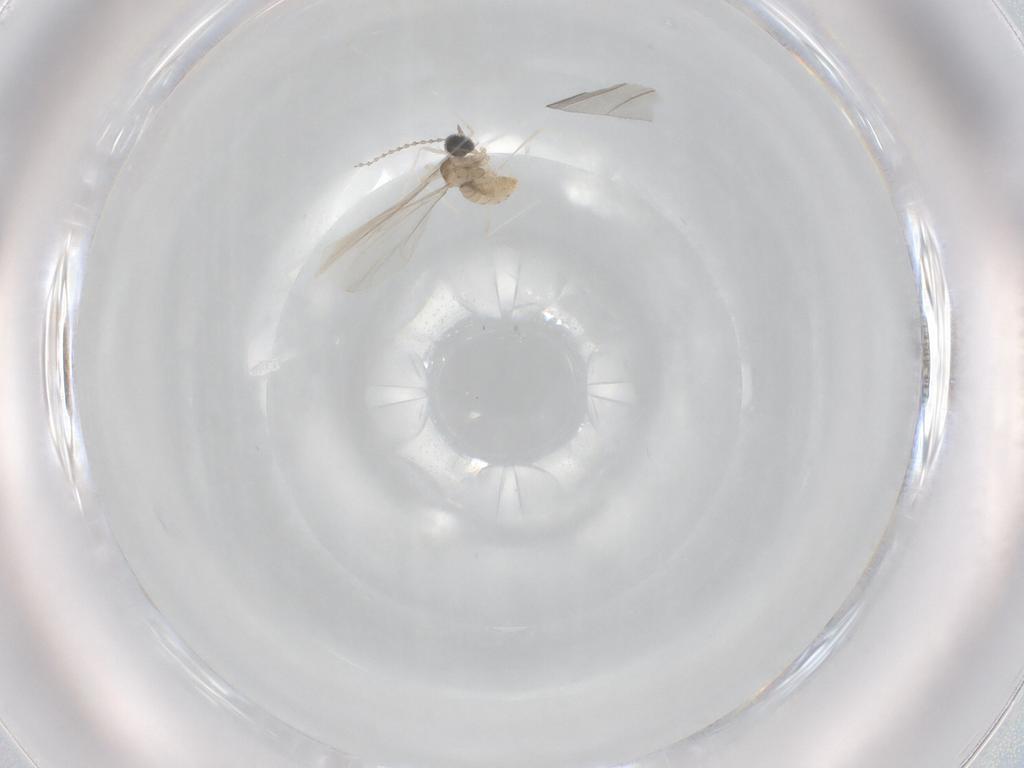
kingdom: Animalia
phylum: Arthropoda
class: Insecta
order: Diptera
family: Cecidomyiidae
